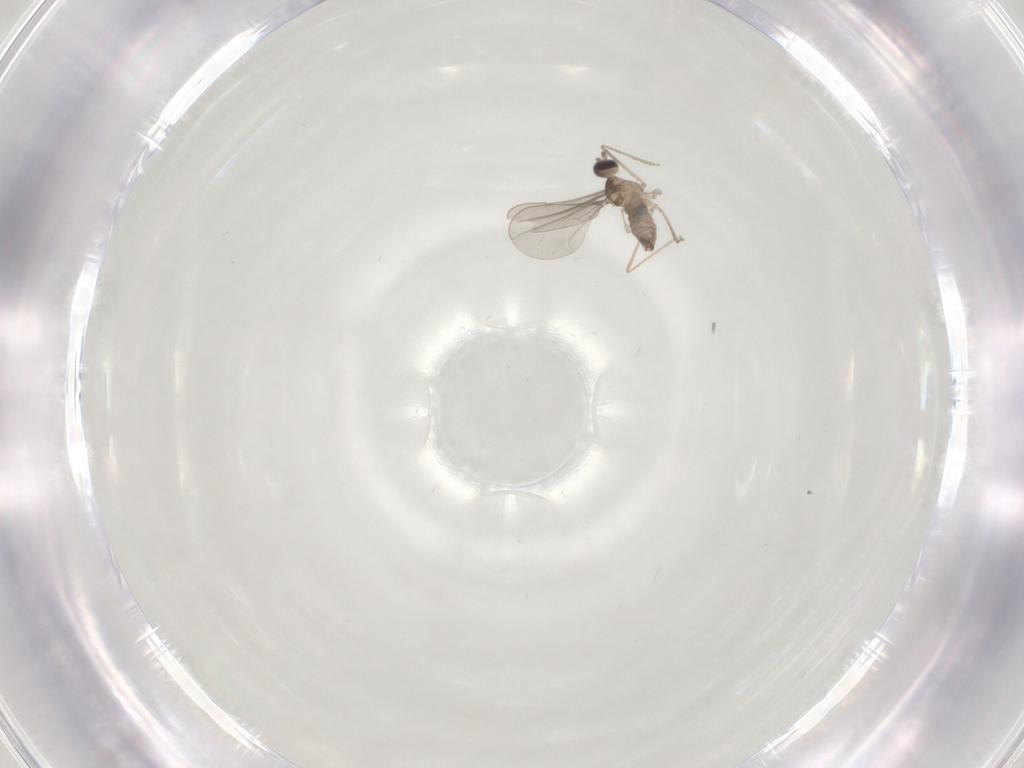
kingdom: Animalia
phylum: Arthropoda
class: Insecta
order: Diptera
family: Cecidomyiidae
